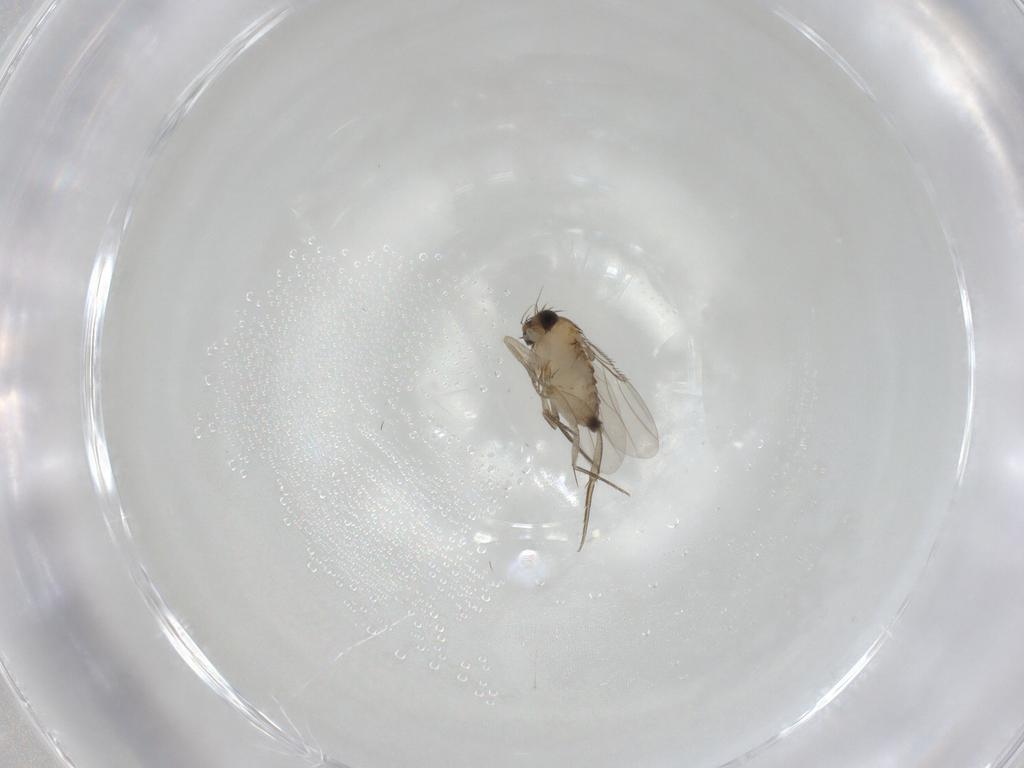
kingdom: Animalia
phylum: Arthropoda
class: Insecta
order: Diptera
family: Phoridae
